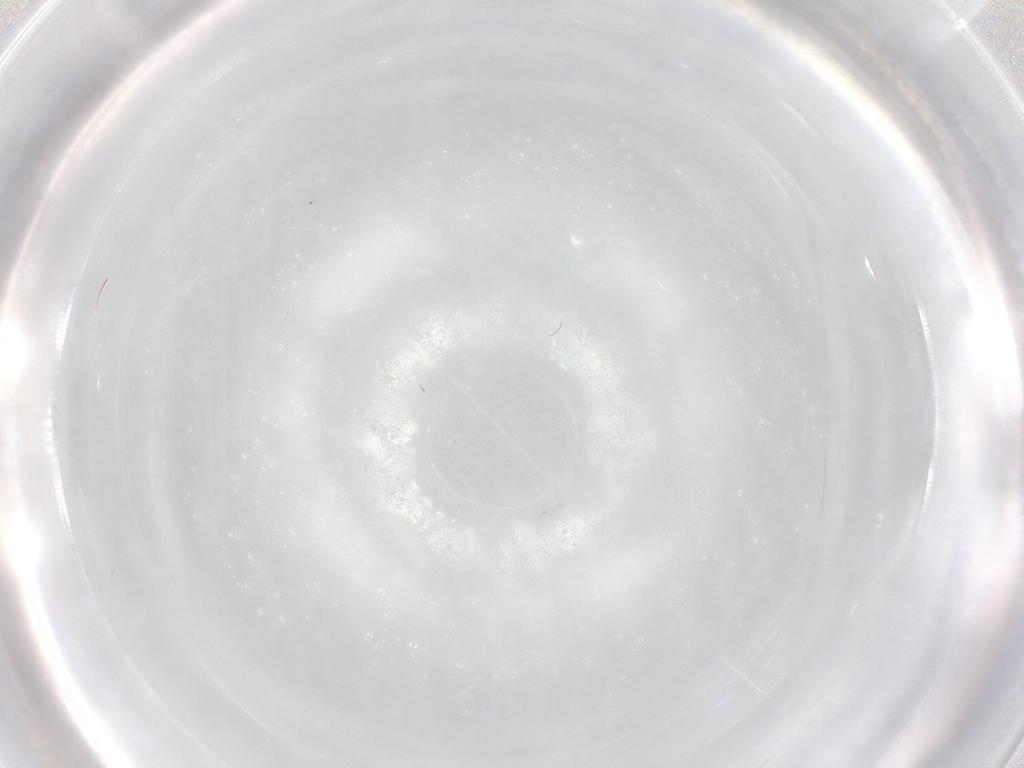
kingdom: Animalia
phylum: Arthropoda
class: Insecta
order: Diptera
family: Cecidomyiidae
